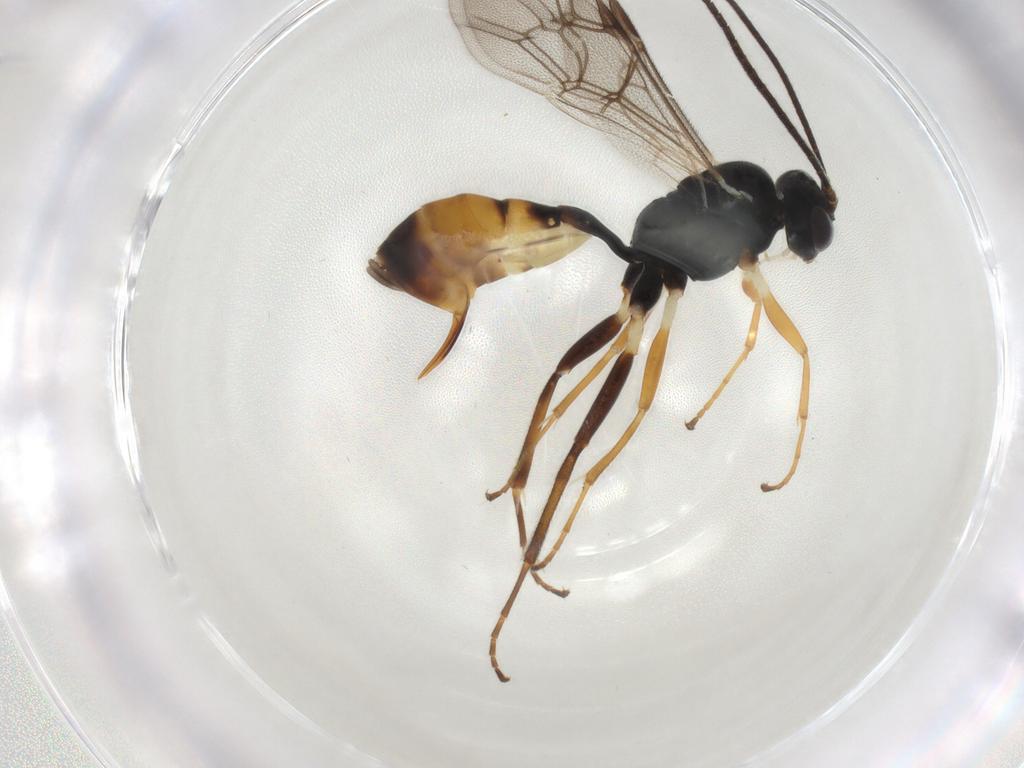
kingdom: Animalia
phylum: Arthropoda
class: Insecta
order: Hymenoptera
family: Ichneumonidae
